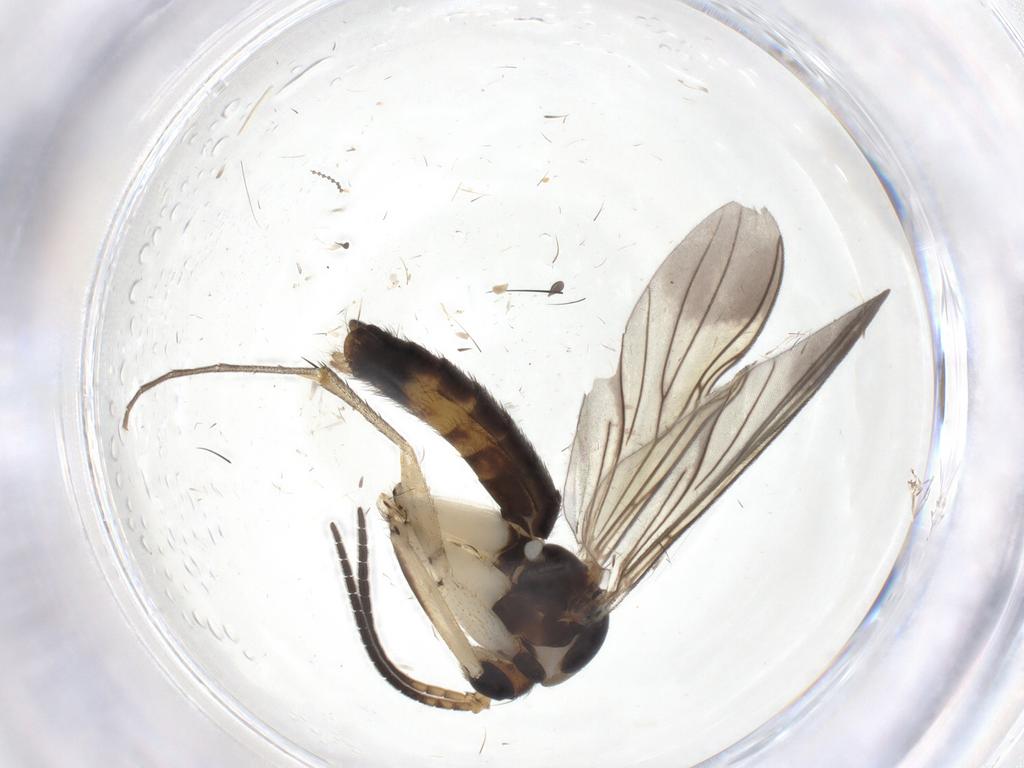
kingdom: Animalia
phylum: Arthropoda
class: Insecta
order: Diptera
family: Mycetophilidae
